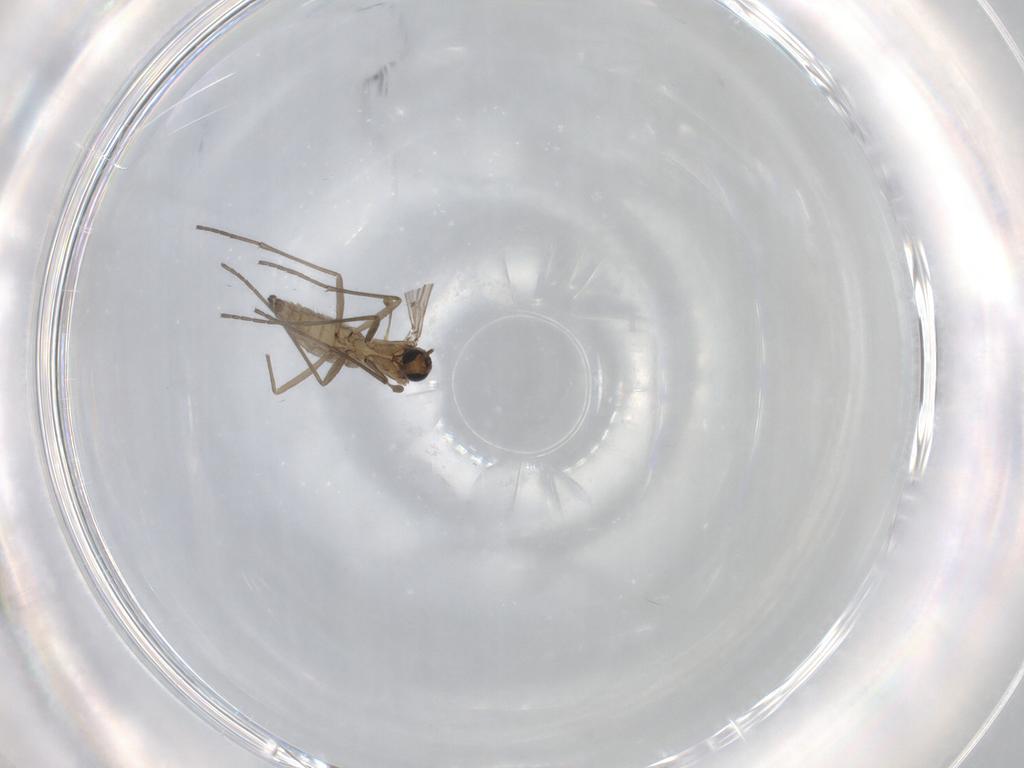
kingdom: Animalia
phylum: Arthropoda
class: Insecta
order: Diptera
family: Sciaridae
